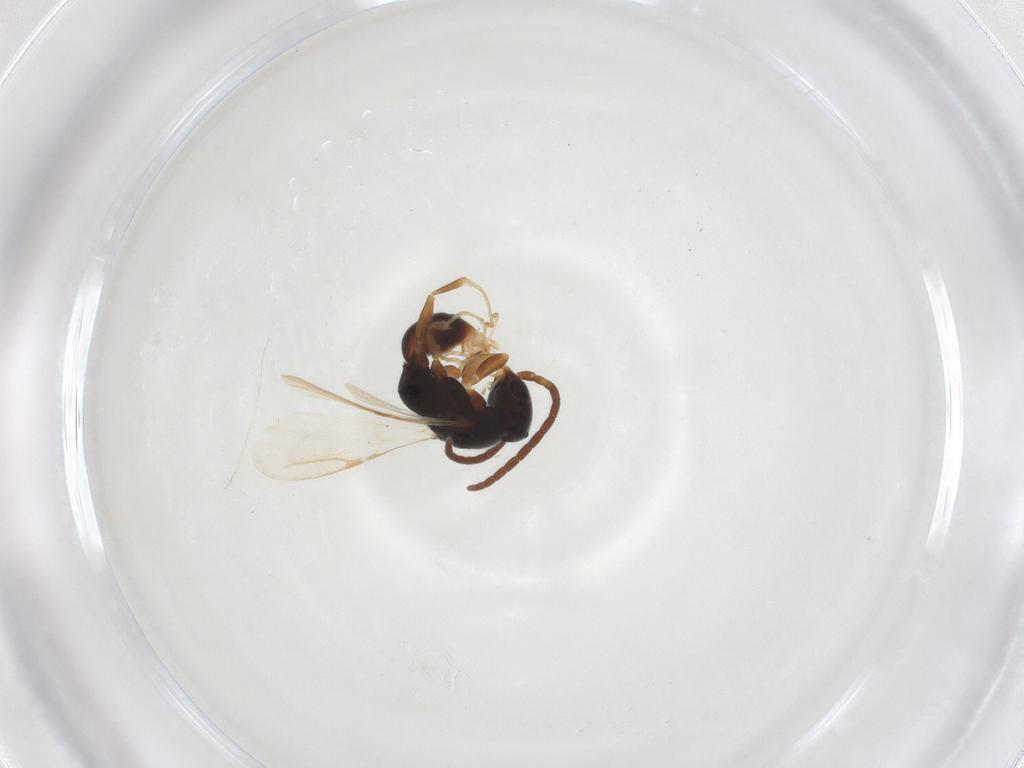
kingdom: Animalia
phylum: Arthropoda
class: Insecta
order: Hymenoptera
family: Bethylidae
